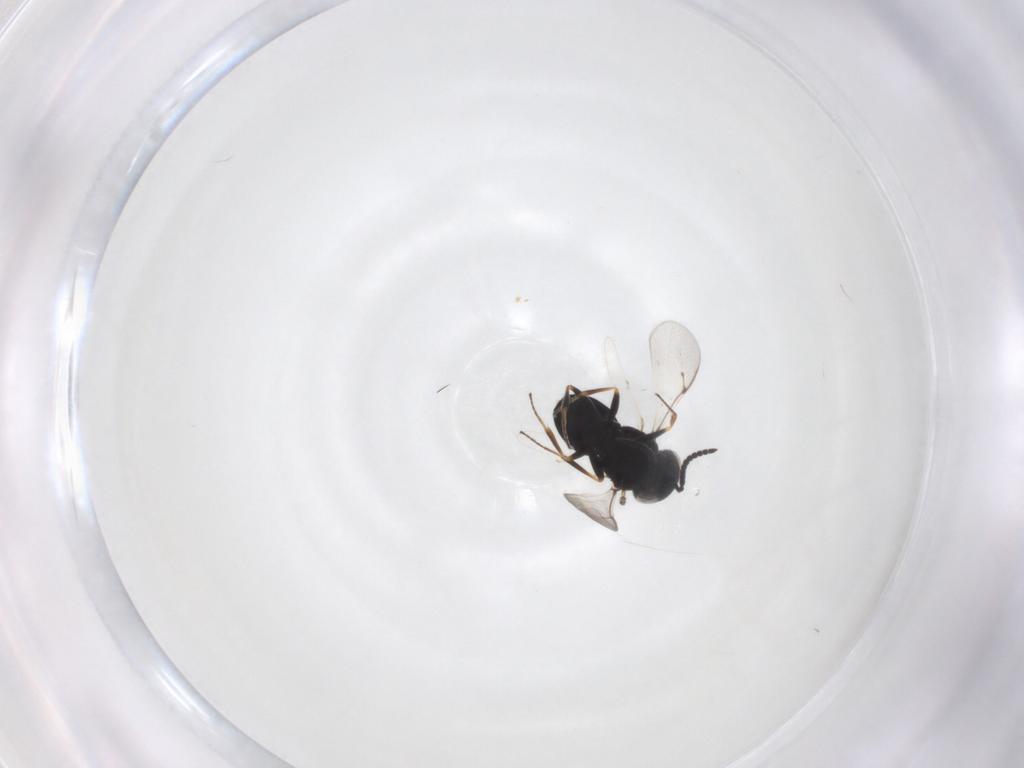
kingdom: Animalia
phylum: Arthropoda
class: Insecta
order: Hymenoptera
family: Scelionidae
